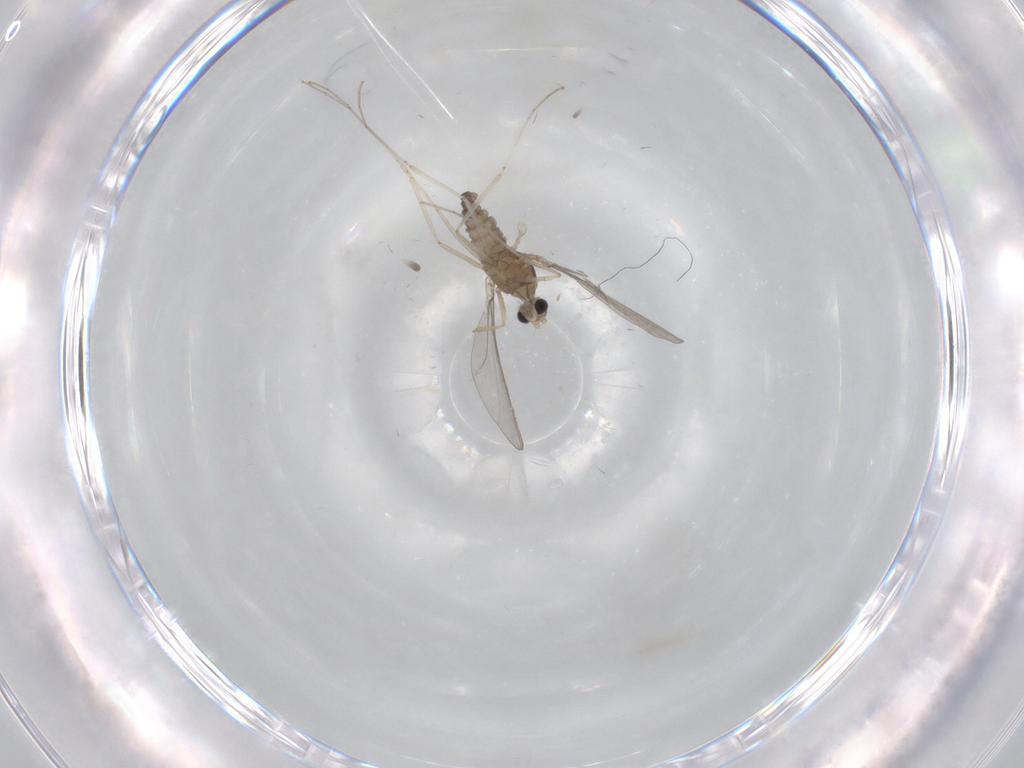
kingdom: Animalia
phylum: Arthropoda
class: Insecta
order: Diptera
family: Cecidomyiidae
